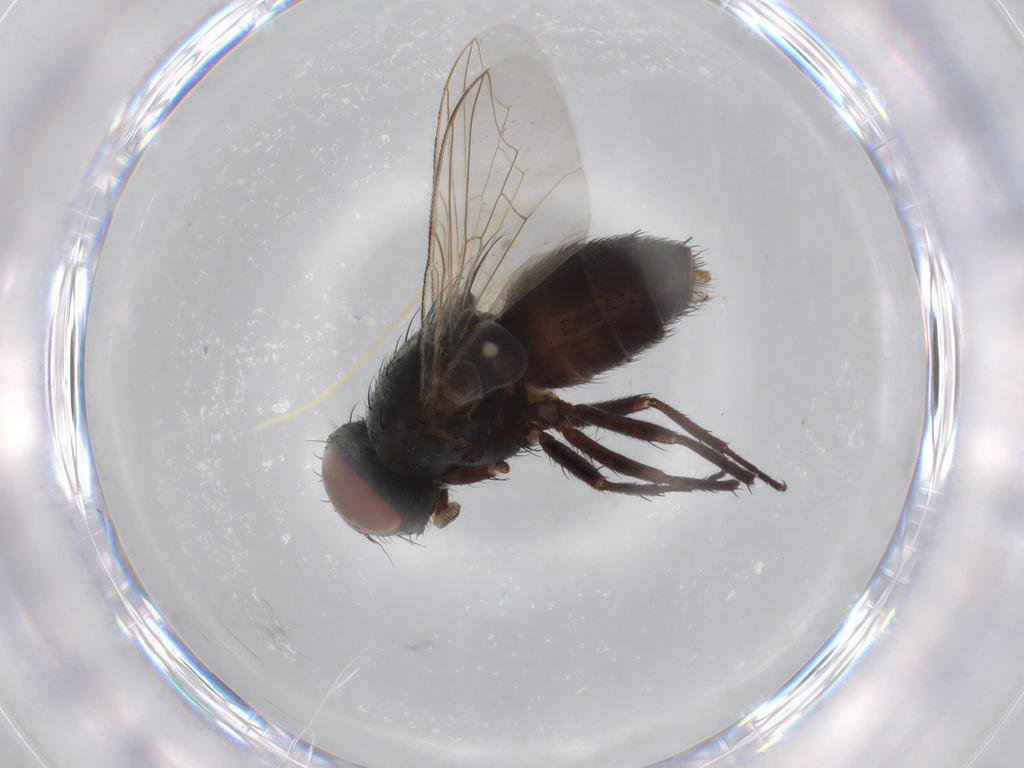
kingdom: Animalia
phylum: Arthropoda
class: Insecta
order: Diptera
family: Sarcophagidae
